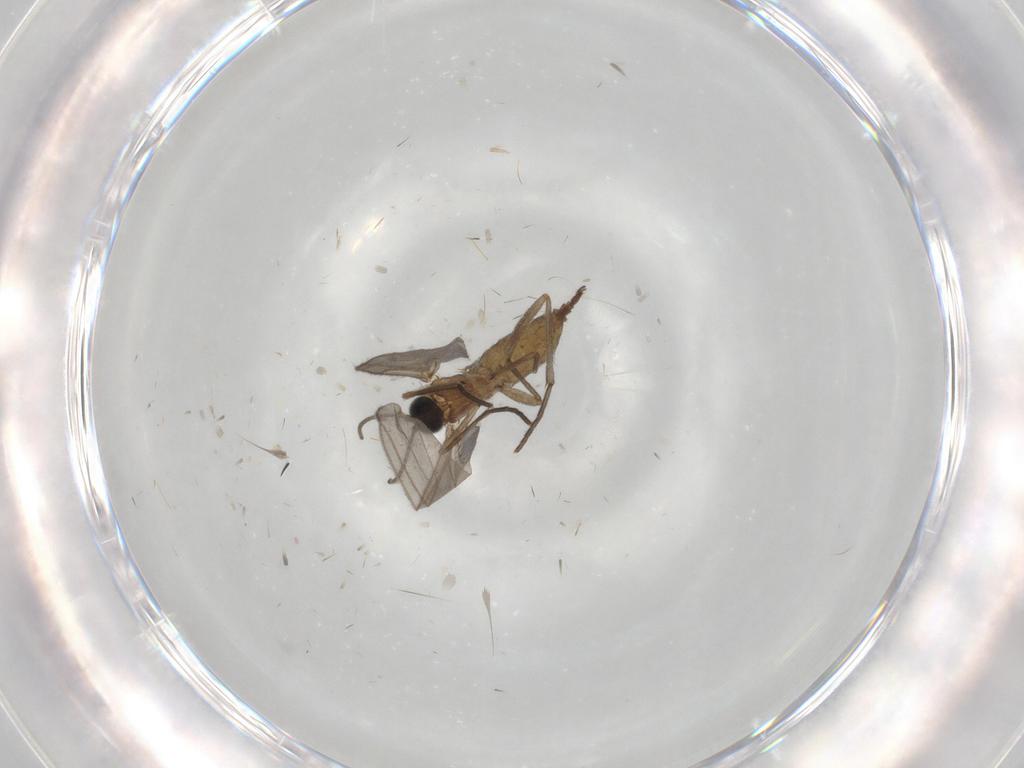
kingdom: Animalia
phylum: Arthropoda
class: Insecta
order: Diptera
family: Sciaridae
